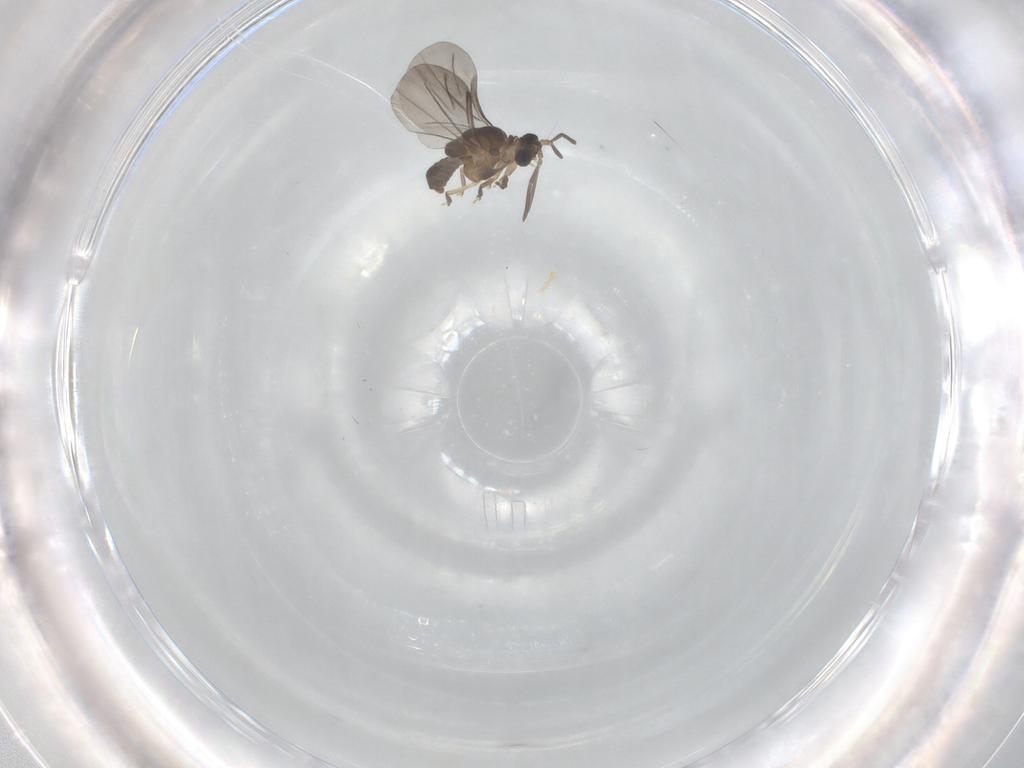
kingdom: Animalia
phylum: Arthropoda
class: Insecta
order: Strepsiptera
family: Elenchidae
